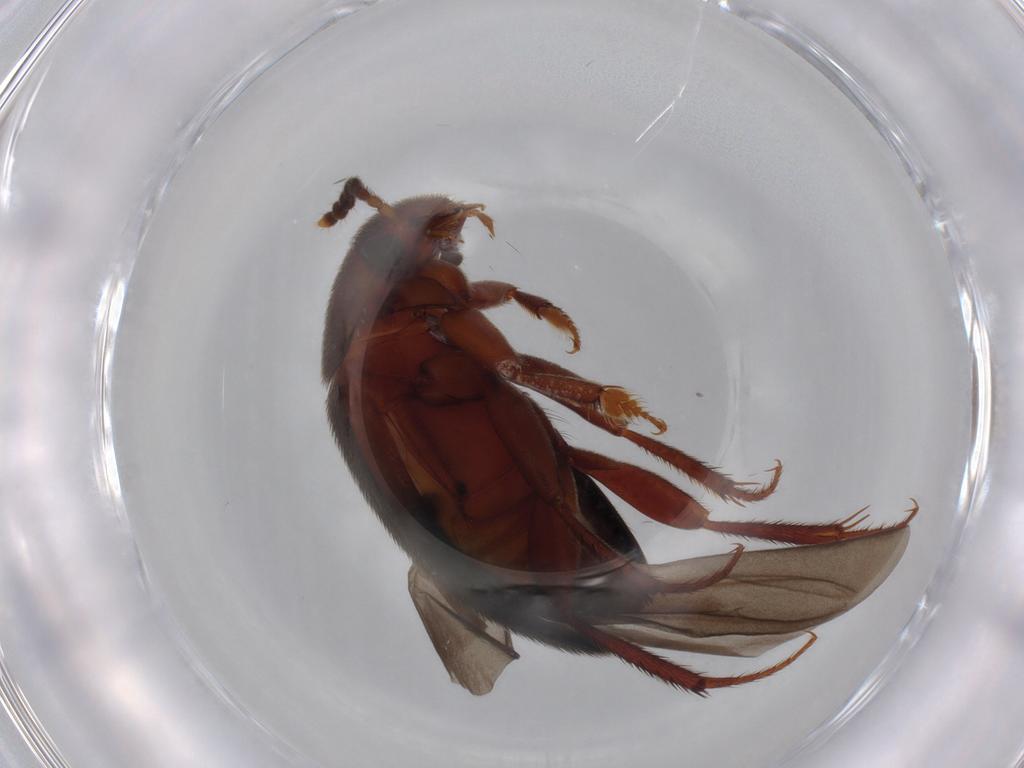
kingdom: Animalia
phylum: Arthropoda
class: Insecta
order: Coleoptera
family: Leiodidae
